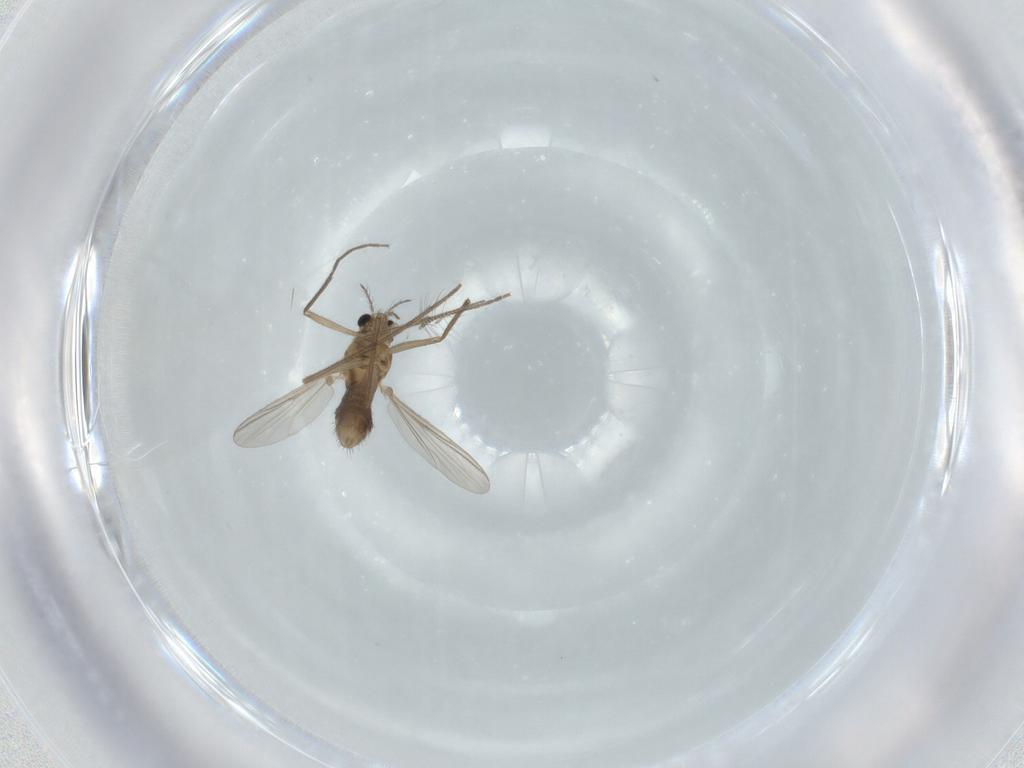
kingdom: Animalia
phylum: Arthropoda
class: Insecta
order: Diptera
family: Chironomidae
